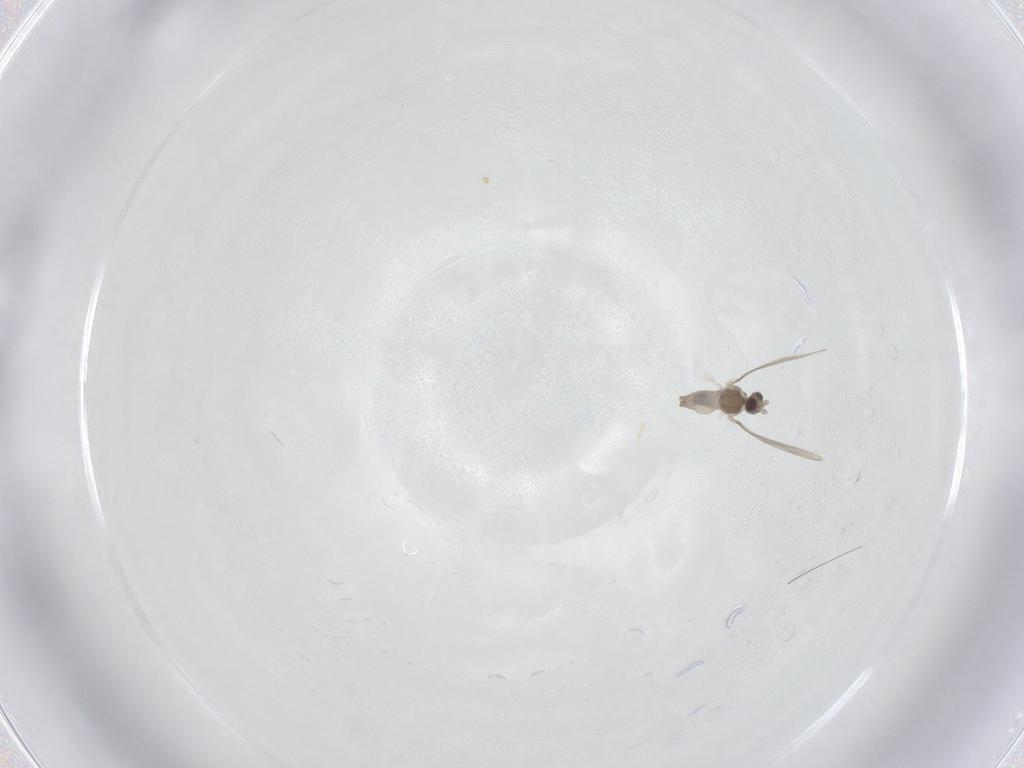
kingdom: Animalia
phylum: Arthropoda
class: Insecta
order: Diptera
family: Cecidomyiidae
